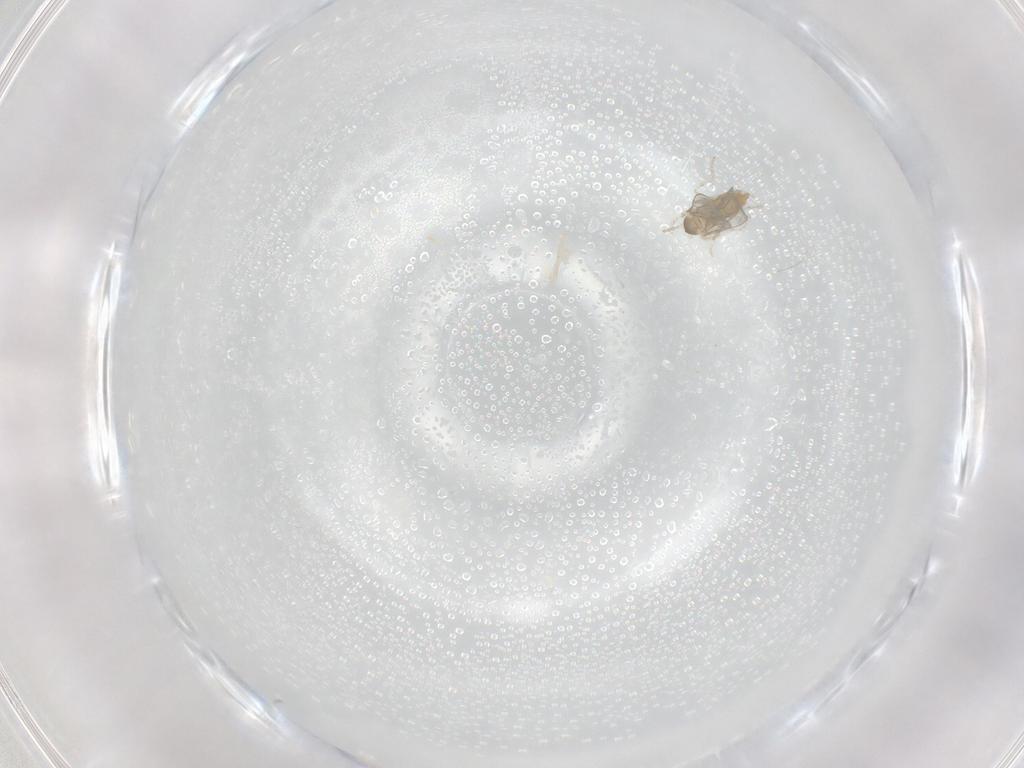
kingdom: Animalia
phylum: Arthropoda
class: Insecta
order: Diptera
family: Chironomidae
